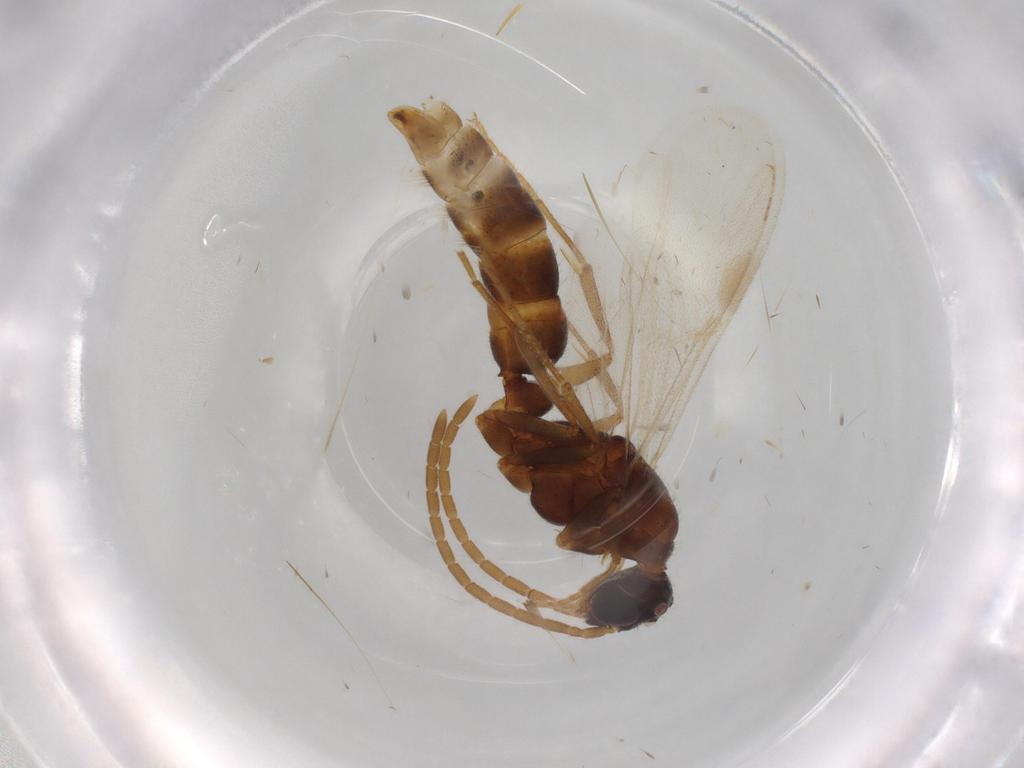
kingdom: Animalia
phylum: Arthropoda
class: Insecta
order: Hymenoptera
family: Formicidae
